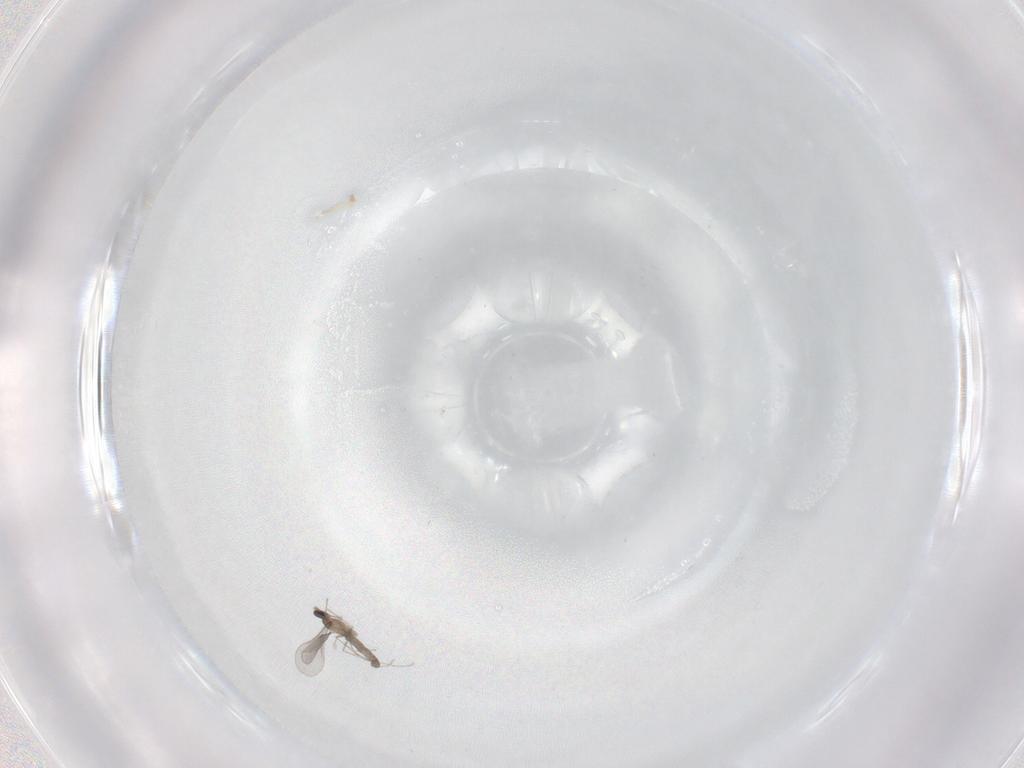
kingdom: Animalia
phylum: Arthropoda
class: Insecta
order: Diptera
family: Cecidomyiidae
